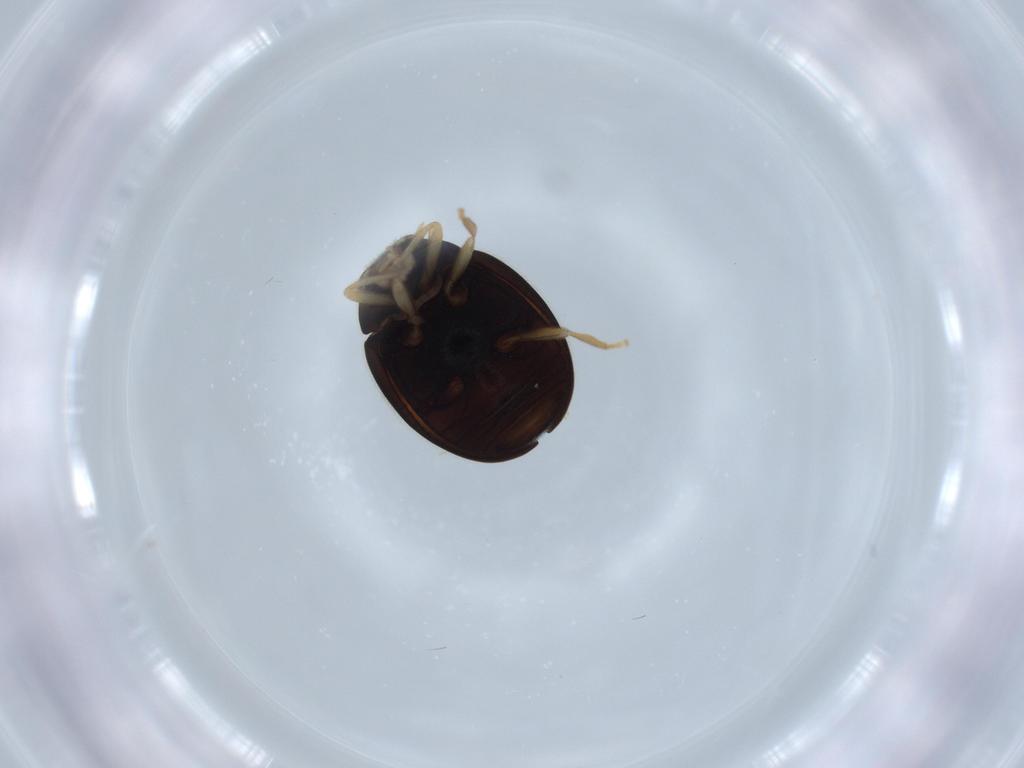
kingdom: Animalia
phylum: Arthropoda
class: Insecta
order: Coleoptera
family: Coccinellidae
